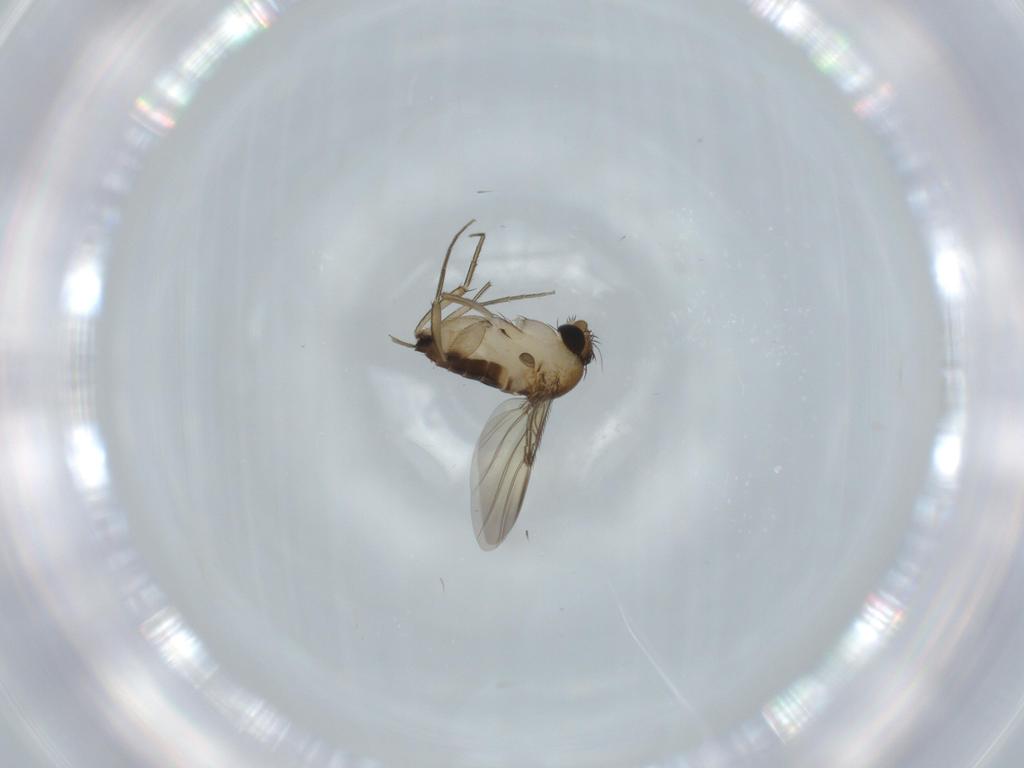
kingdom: Animalia
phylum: Arthropoda
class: Insecta
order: Diptera
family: Phoridae
